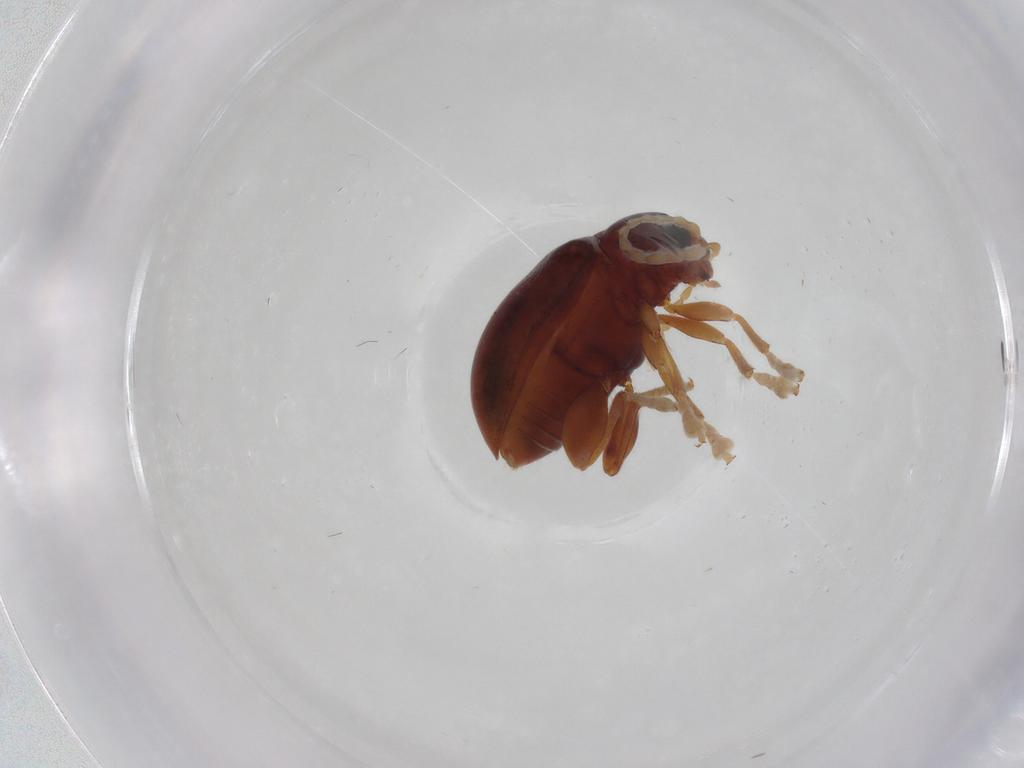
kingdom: Animalia
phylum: Arthropoda
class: Insecta
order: Coleoptera
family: Chrysomelidae
